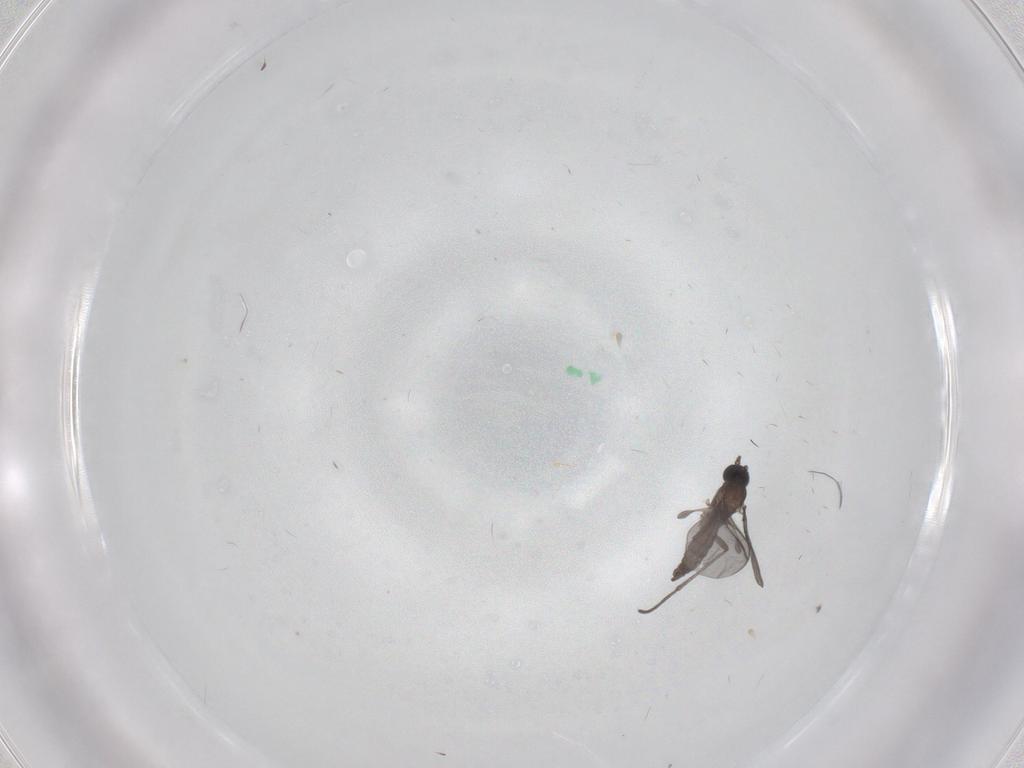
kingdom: Animalia
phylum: Arthropoda
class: Insecta
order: Diptera
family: Sciaridae
